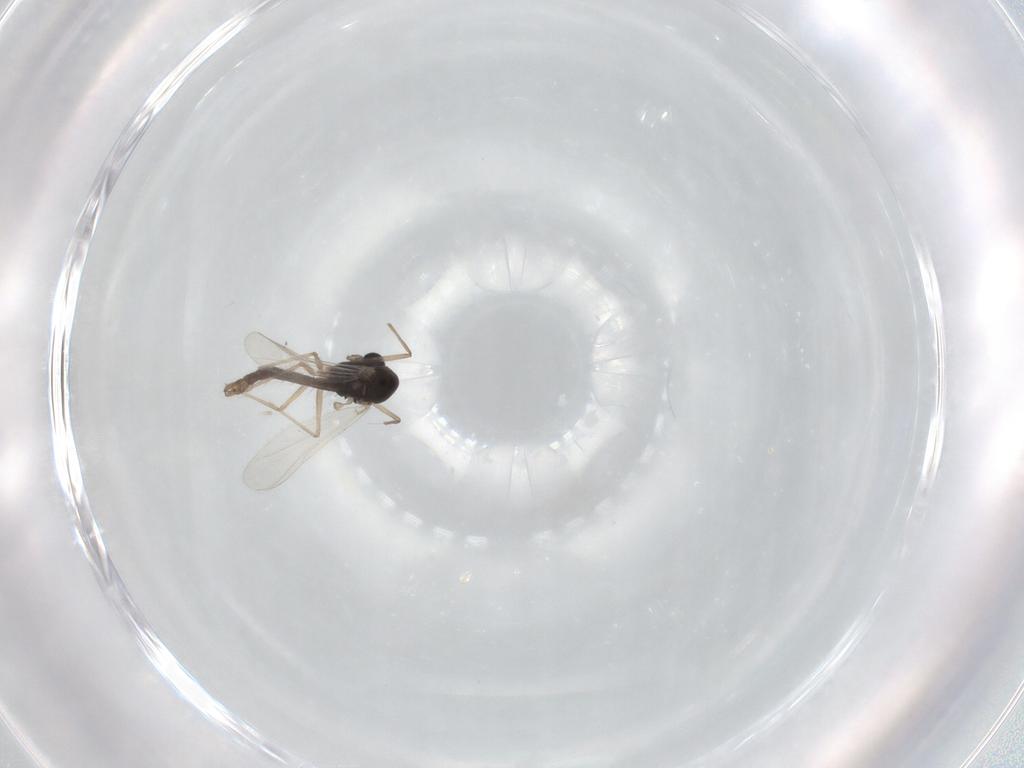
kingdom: Animalia
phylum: Arthropoda
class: Insecta
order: Diptera
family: Chironomidae
